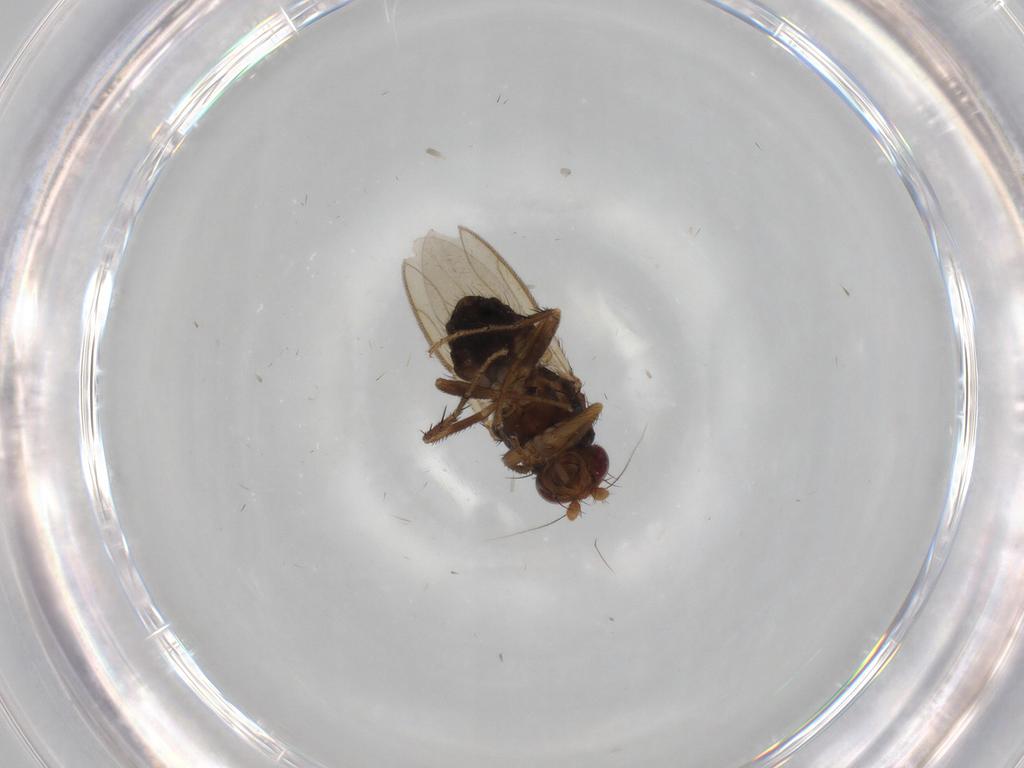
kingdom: Animalia
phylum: Arthropoda
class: Insecta
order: Diptera
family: Sphaeroceridae
